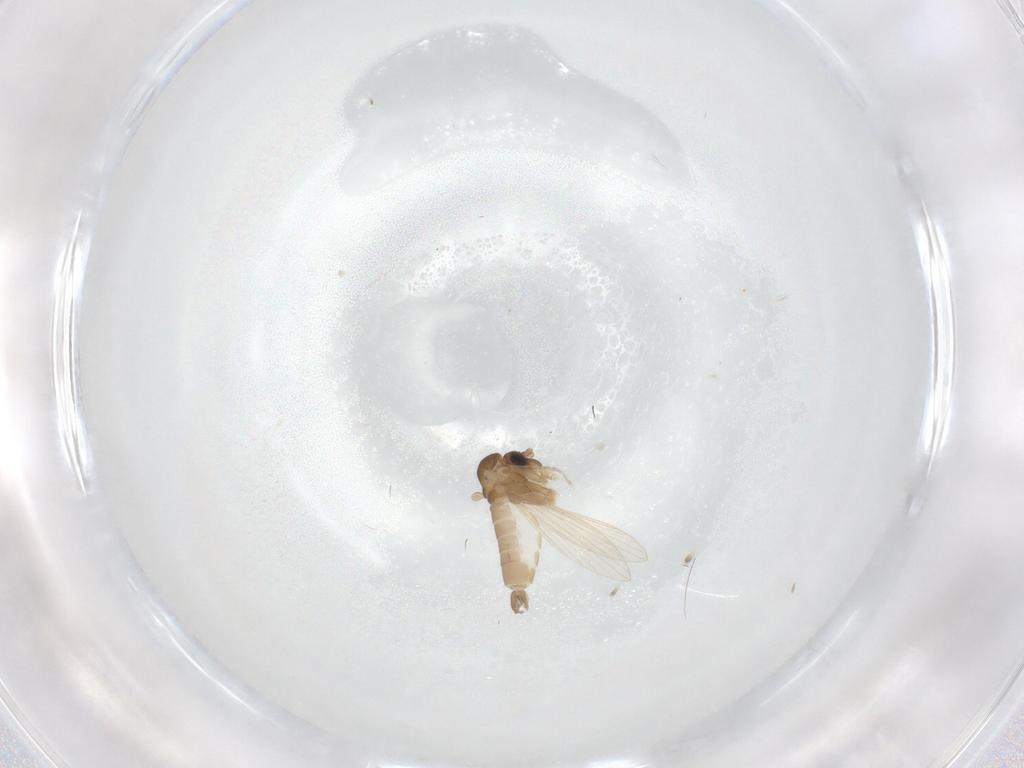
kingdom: Animalia
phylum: Arthropoda
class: Insecta
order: Diptera
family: Psychodidae
